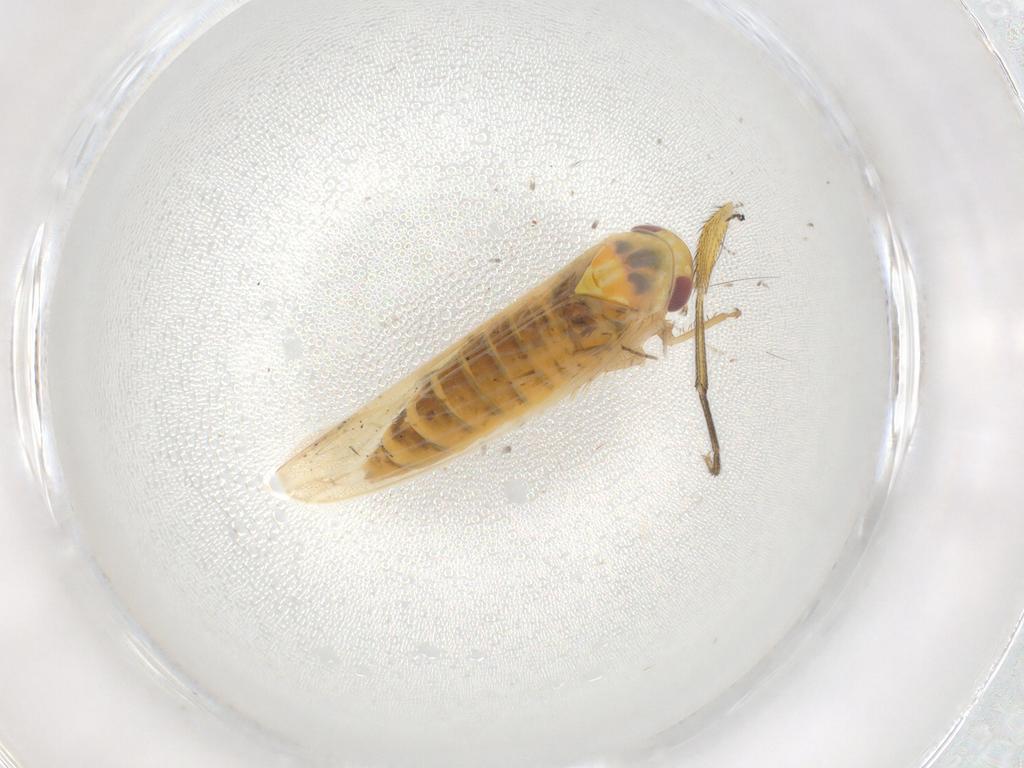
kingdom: Animalia
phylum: Arthropoda
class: Insecta
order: Hemiptera
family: Cicadellidae
